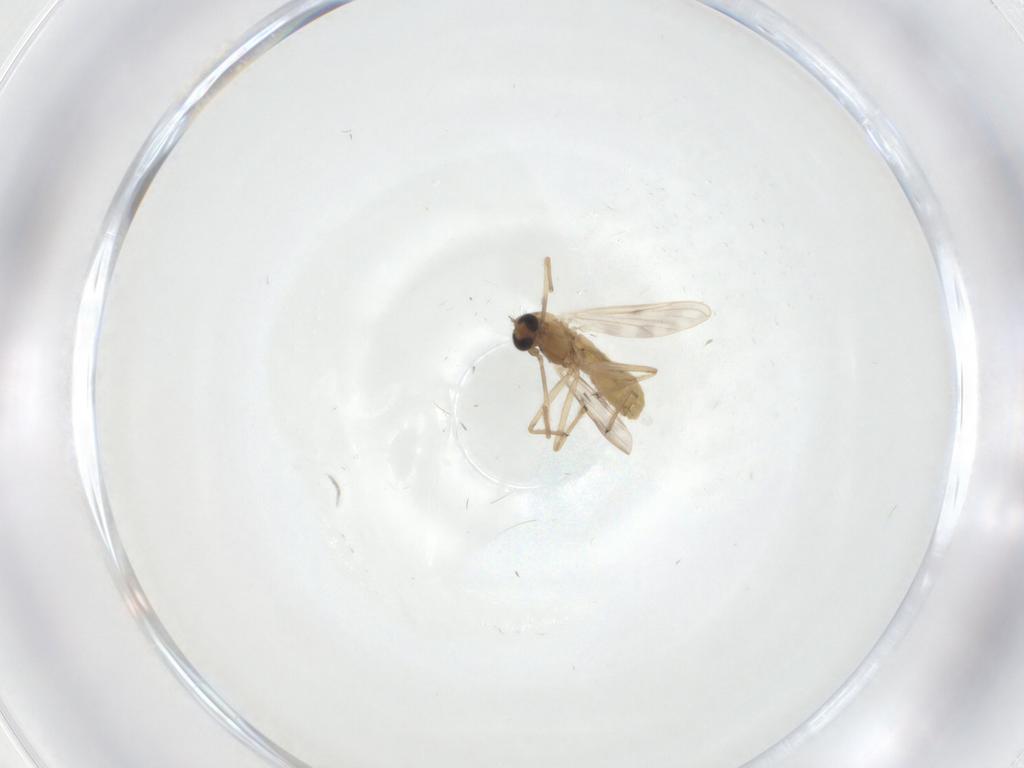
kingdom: Animalia
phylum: Arthropoda
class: Insecta
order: Diptera
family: Chironomidae
